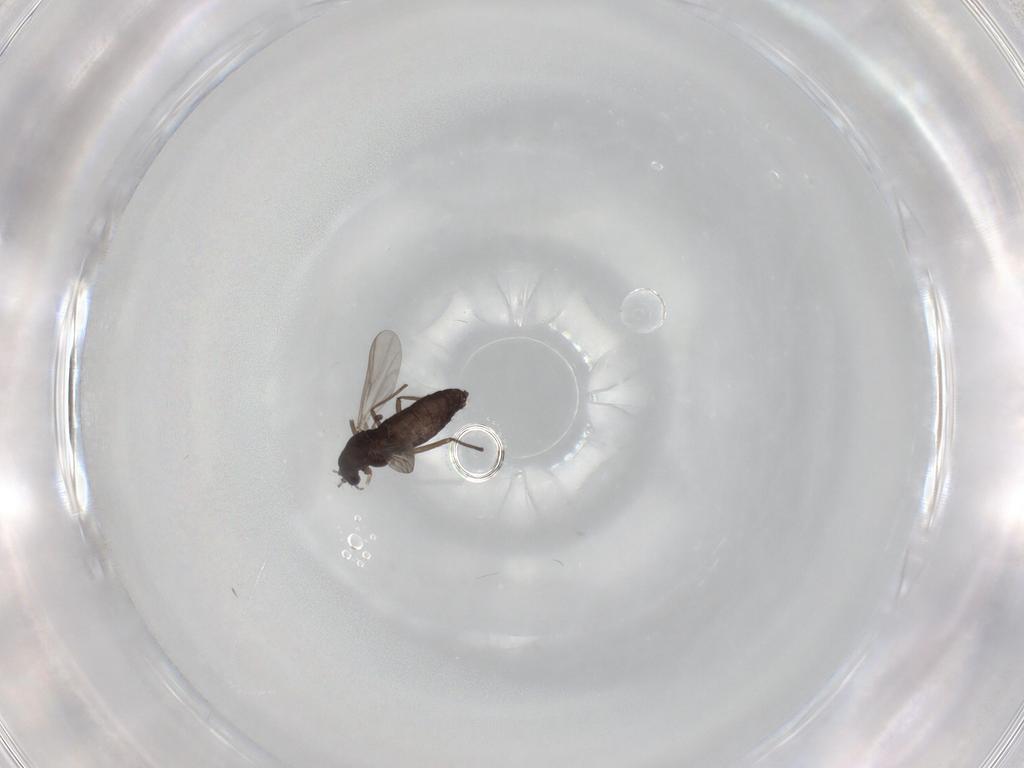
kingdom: Animalia
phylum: Arthropoda
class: Insecta
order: Diptera
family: Chironomidae
